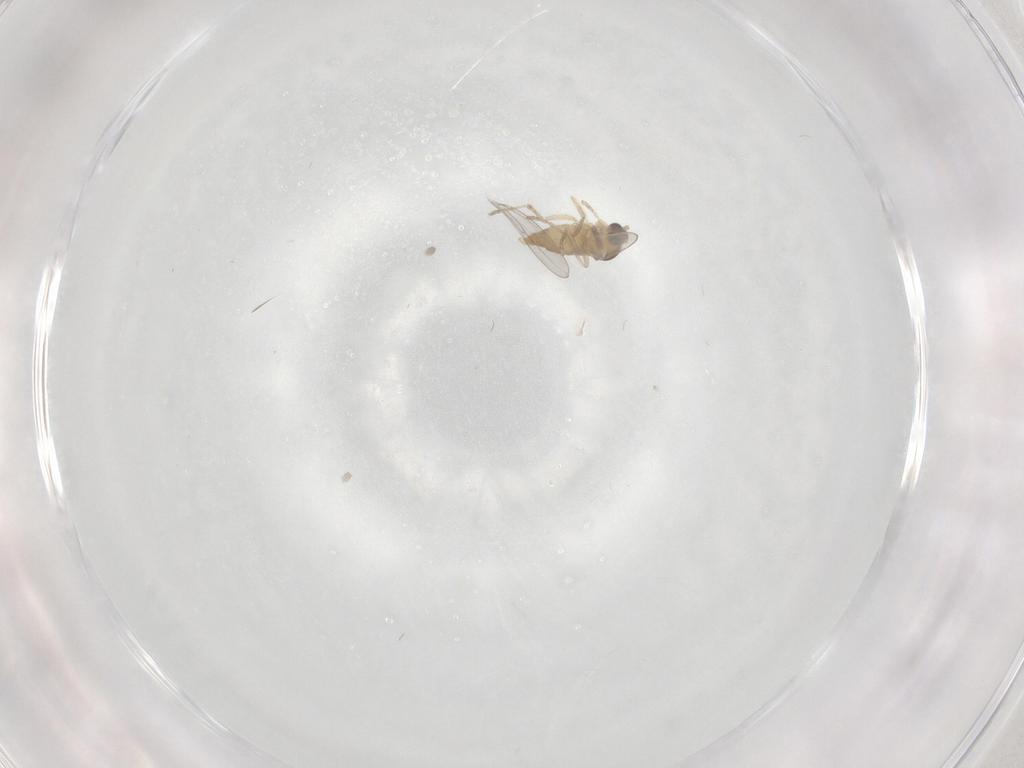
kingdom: Animalia
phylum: Arthropoda
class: Insecta
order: Diptera
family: Cecidomyiidae
